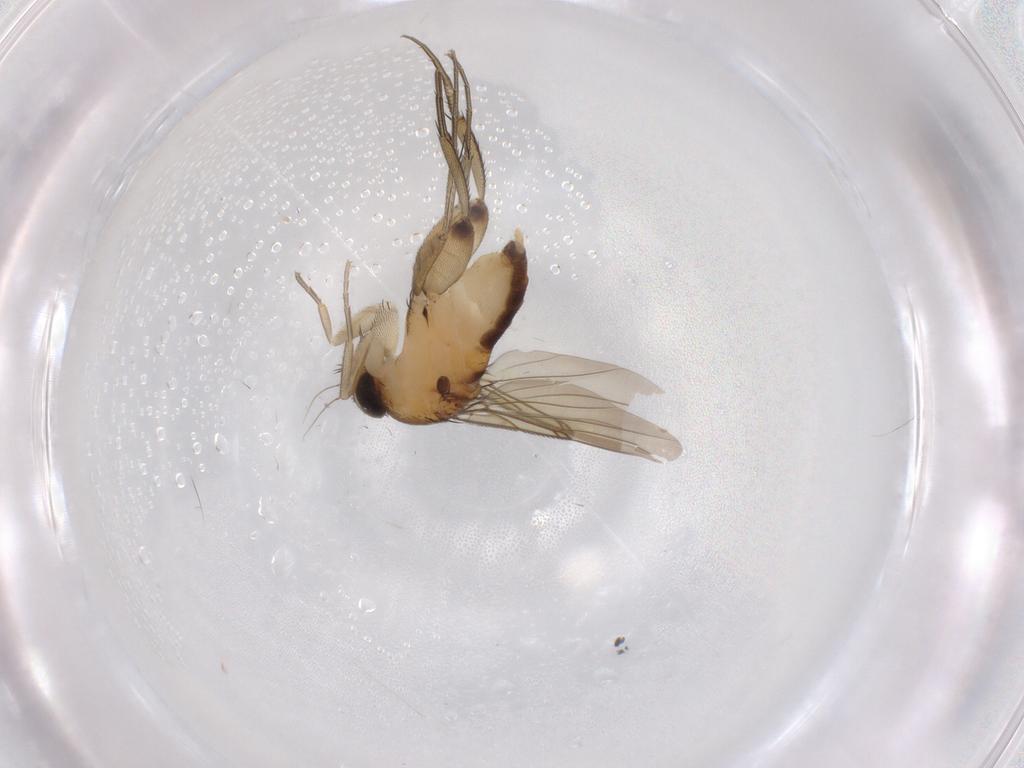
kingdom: Animalia
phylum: Arthropoda
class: Insecta
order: Diptera
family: Phoridae
